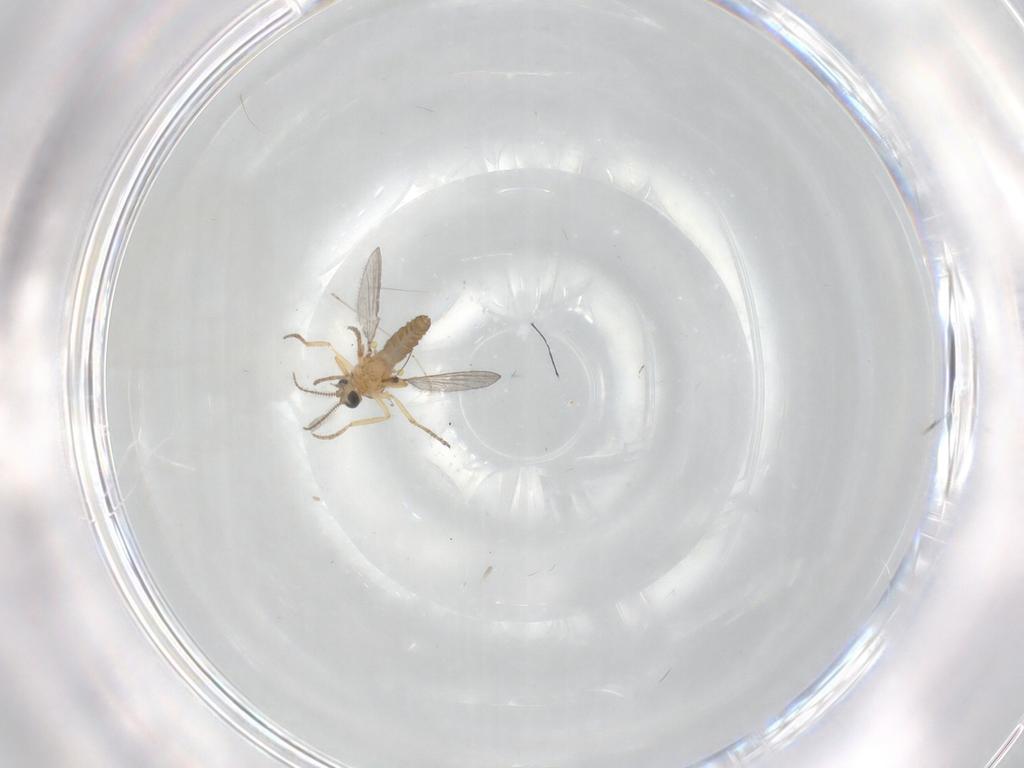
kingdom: Animalia
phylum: Arthropoda
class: Insecta
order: Diptera
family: Ceratopogonidae
